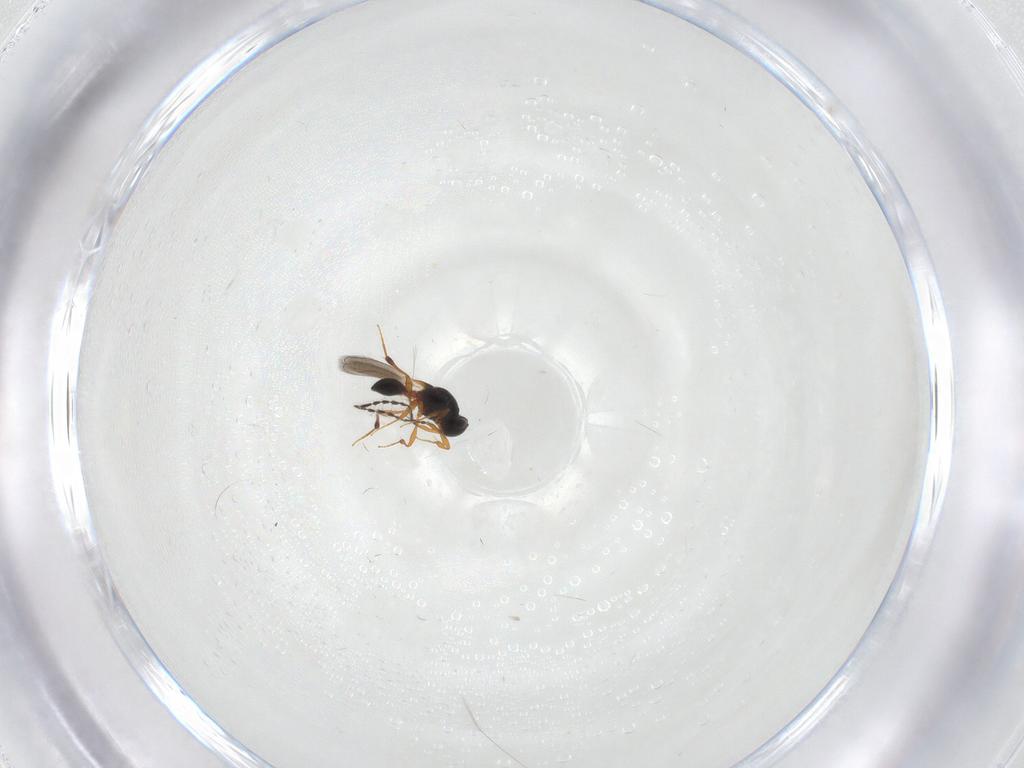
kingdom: Animalia
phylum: Arthropoda
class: Insecta
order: Hymenoptera
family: Platygastridae
